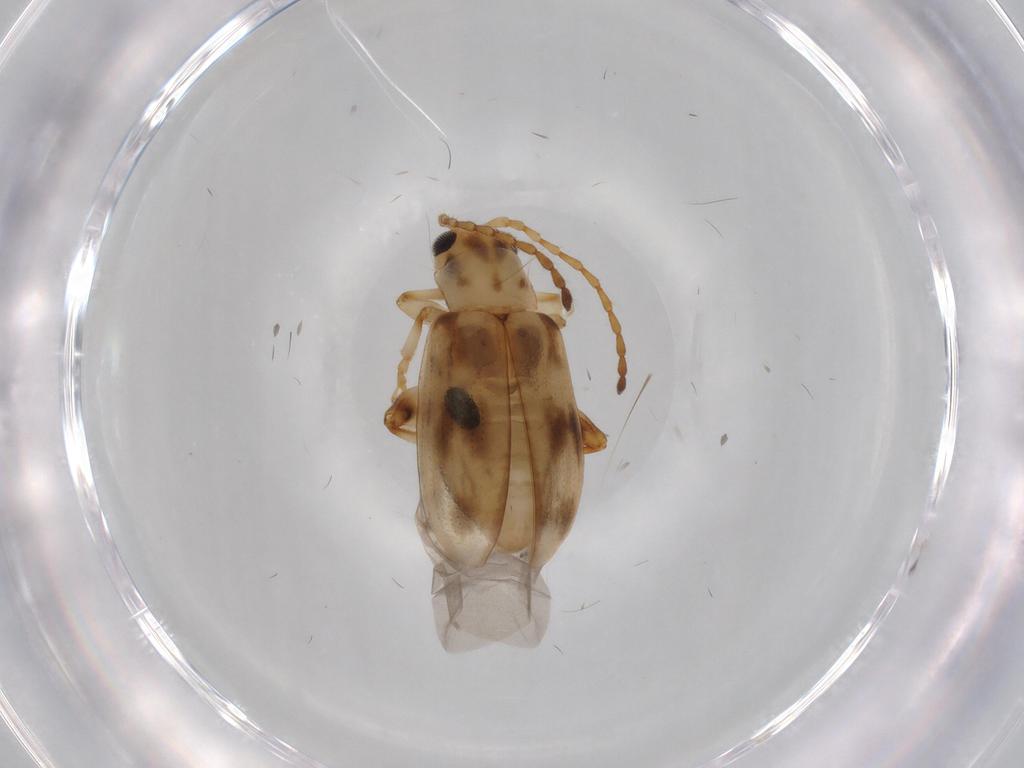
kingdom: Animalia
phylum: Arthropoda
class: Insecta
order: Coleoptera
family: Chrysomelidae
